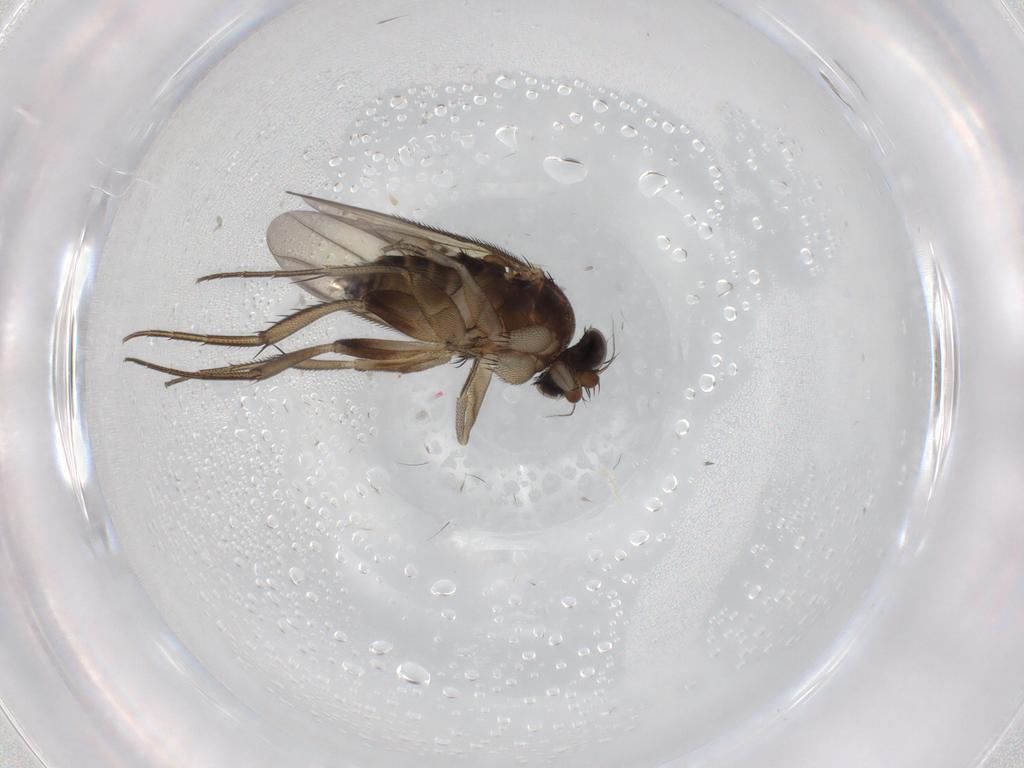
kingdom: Animalia
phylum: Arthropoda
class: Insecta
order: Diptera
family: Phoridae
